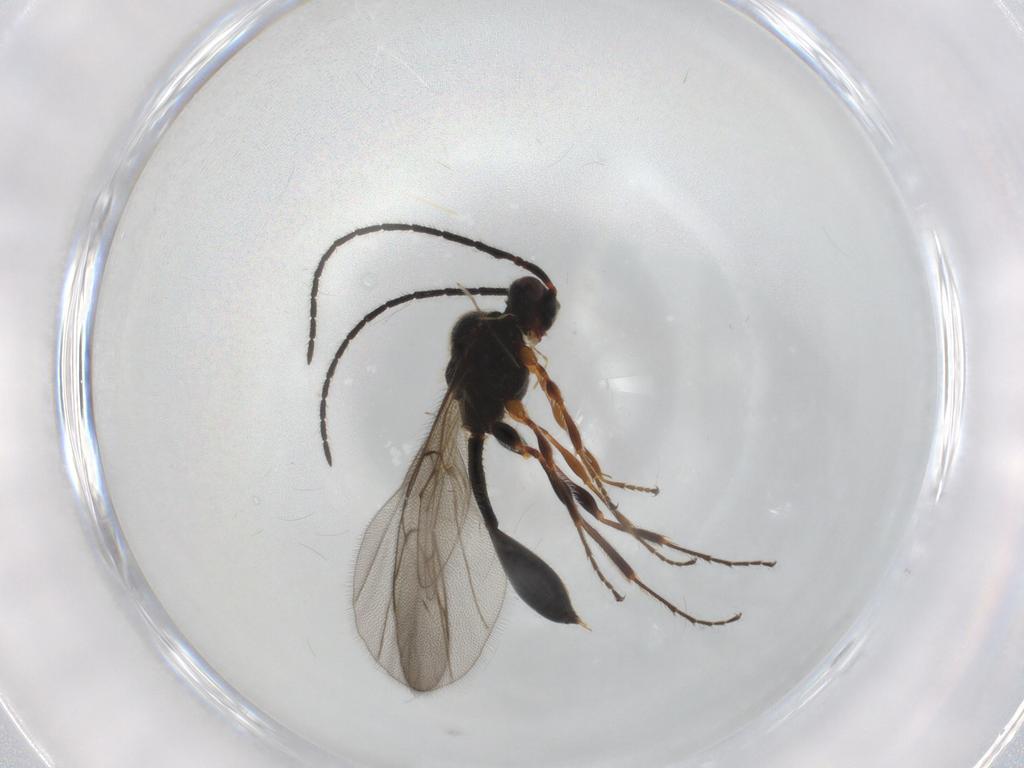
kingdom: Animalia
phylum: Arthropoda
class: Insecta
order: Hymenoptera
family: Diapriidae
